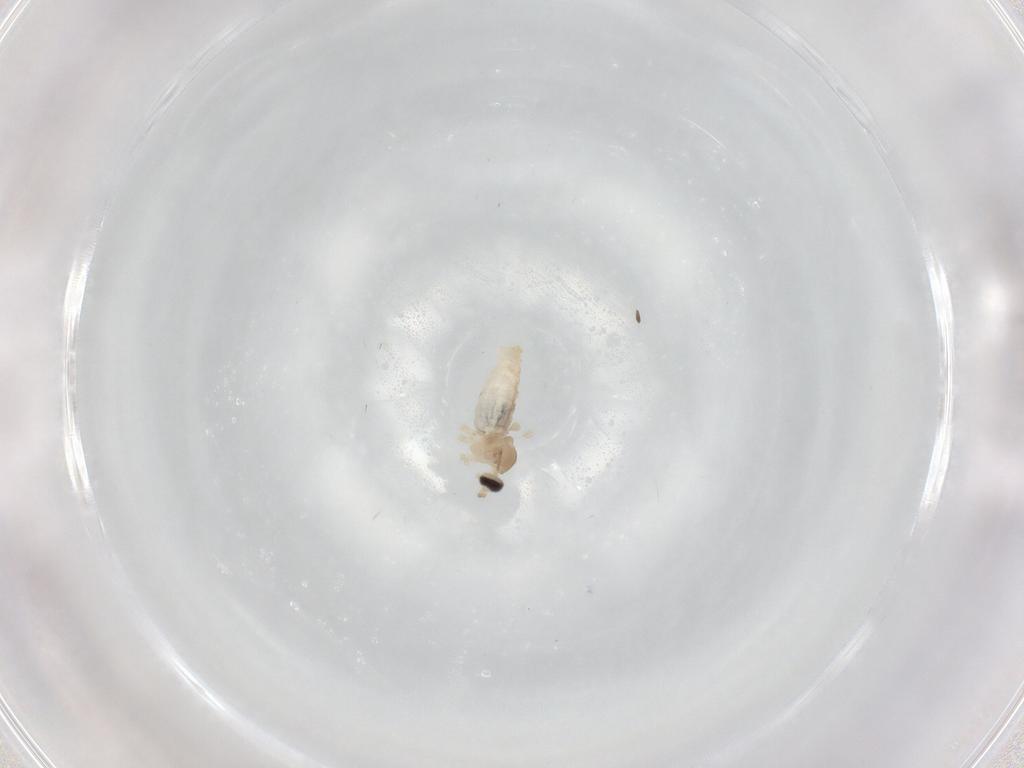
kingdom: Animalia
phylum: Arthropoda
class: Insecta
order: Diptera
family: Cecidomyiidae
